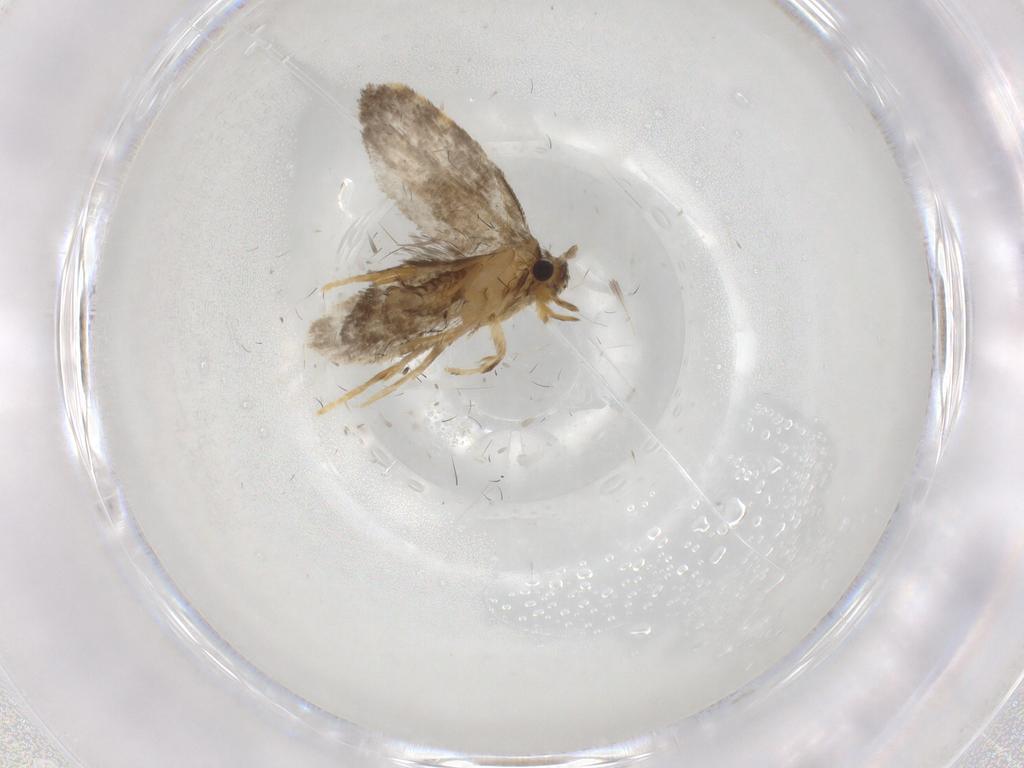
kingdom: Animalia
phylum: Arthropoda
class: Insecta
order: Lepidoptera
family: Psychidae
